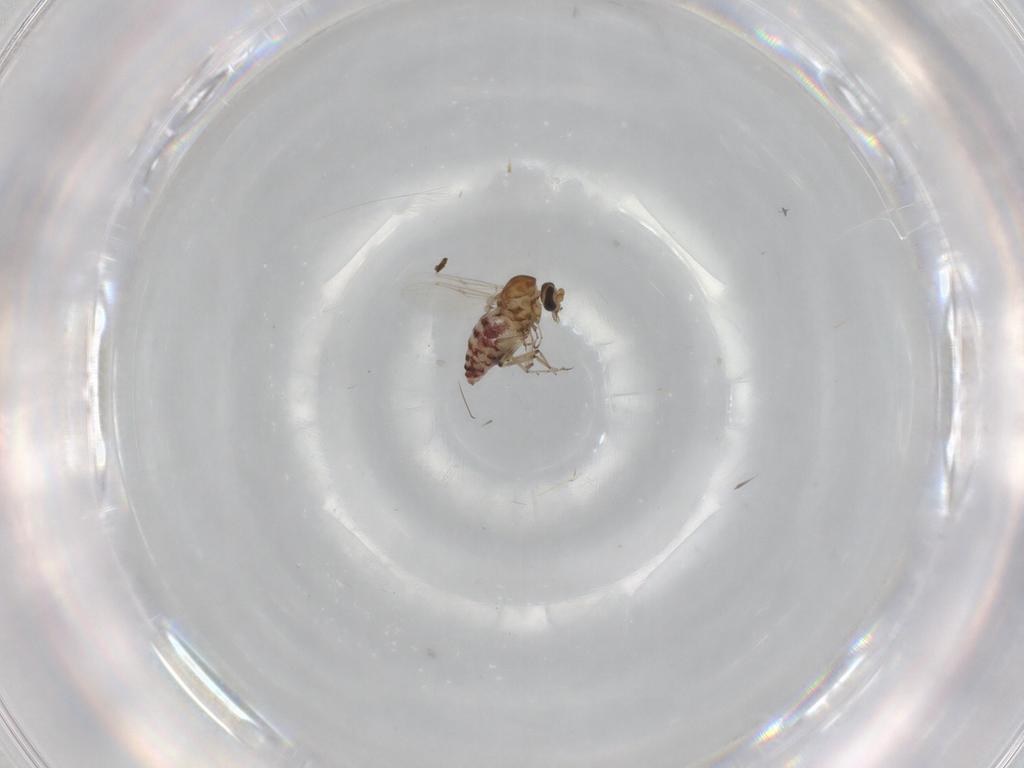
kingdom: Animalia
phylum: Arthropoda
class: Insecta
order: Diptera
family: Ceratopogonidae
